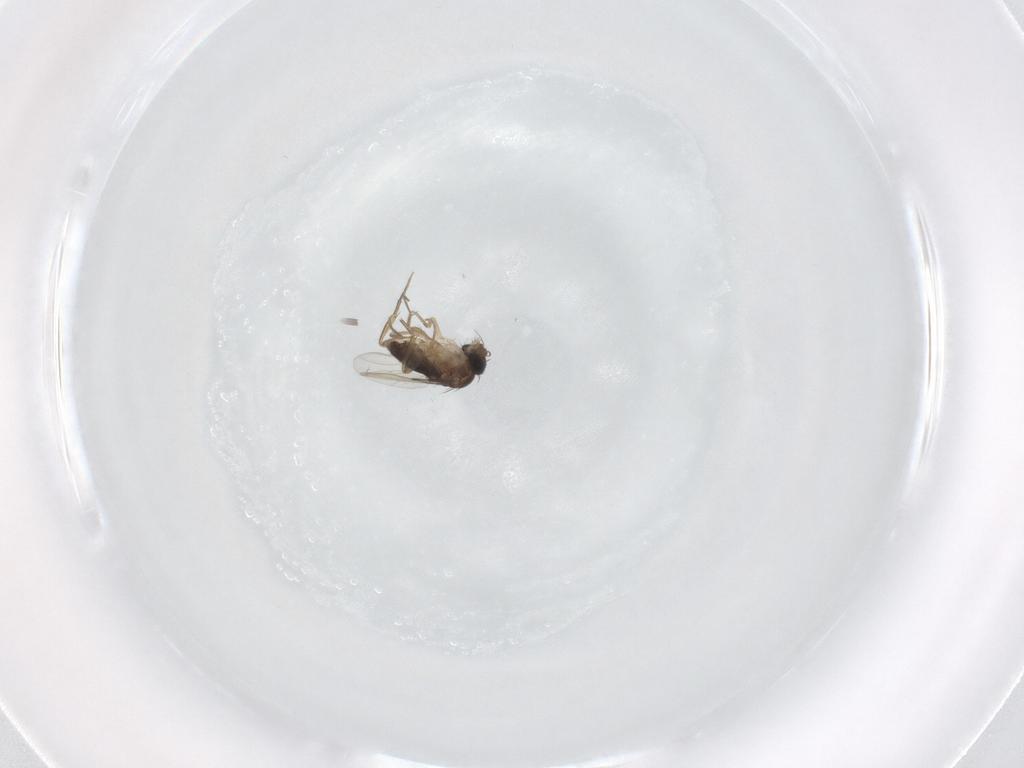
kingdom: Animalia
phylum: Arthropoda
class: Insecta
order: Diptera
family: Phoridae
